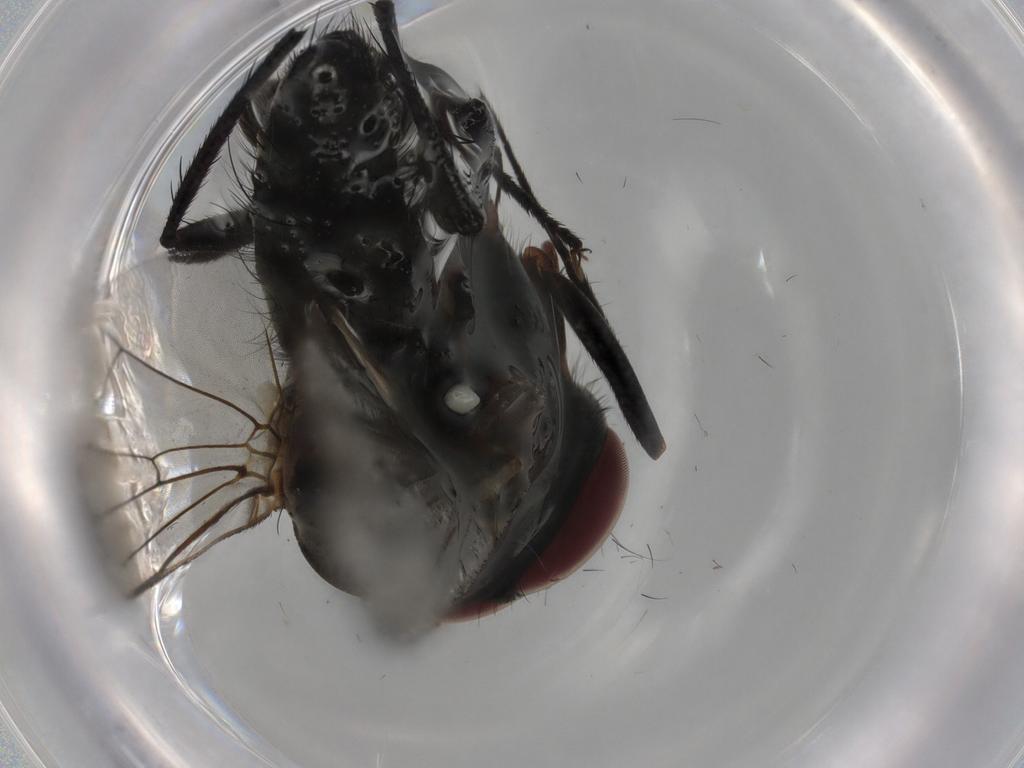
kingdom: Animalia
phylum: Arthropoda
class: Insecta
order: Diptera
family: Anthomyiidae
